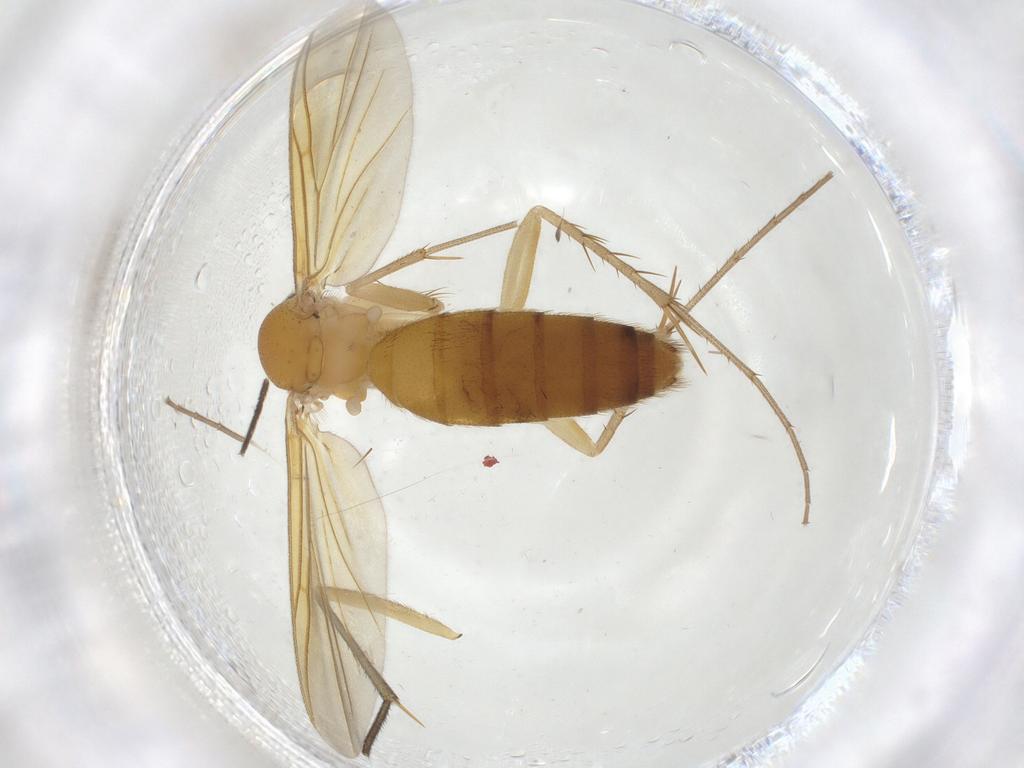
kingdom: Animalia
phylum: Arthropoda
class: Insecta
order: Diptera
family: Mycetophilidae
